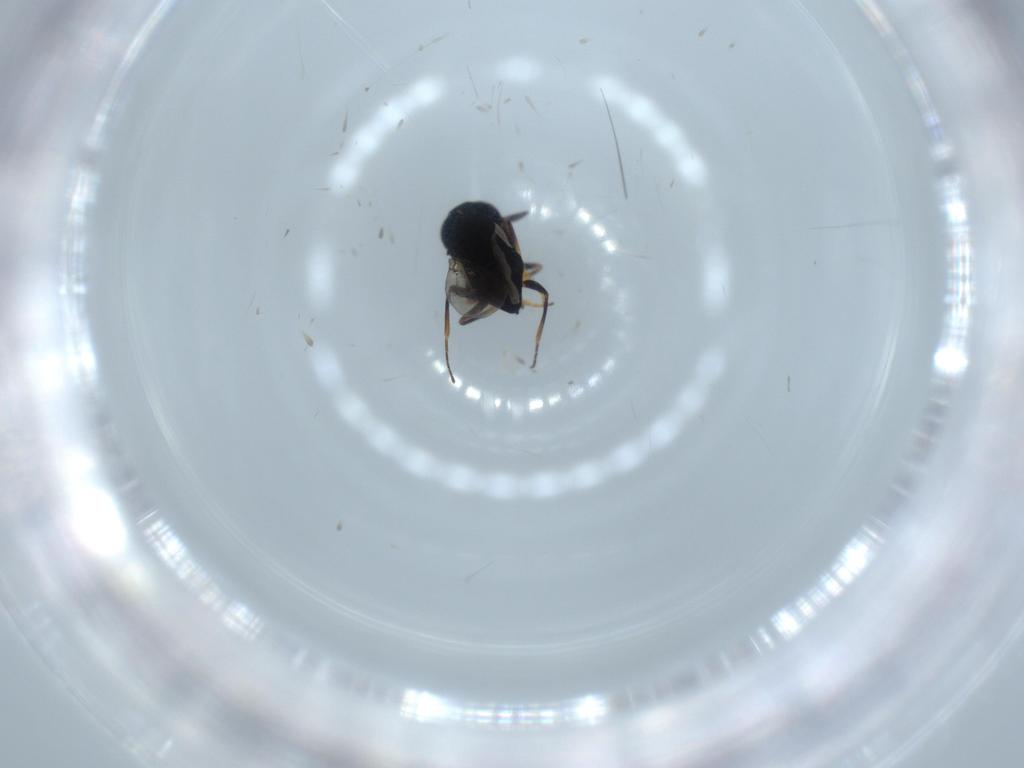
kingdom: Animalia
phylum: Arthropoda
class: Insecta
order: Hymenoptera
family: Encyrtidae
